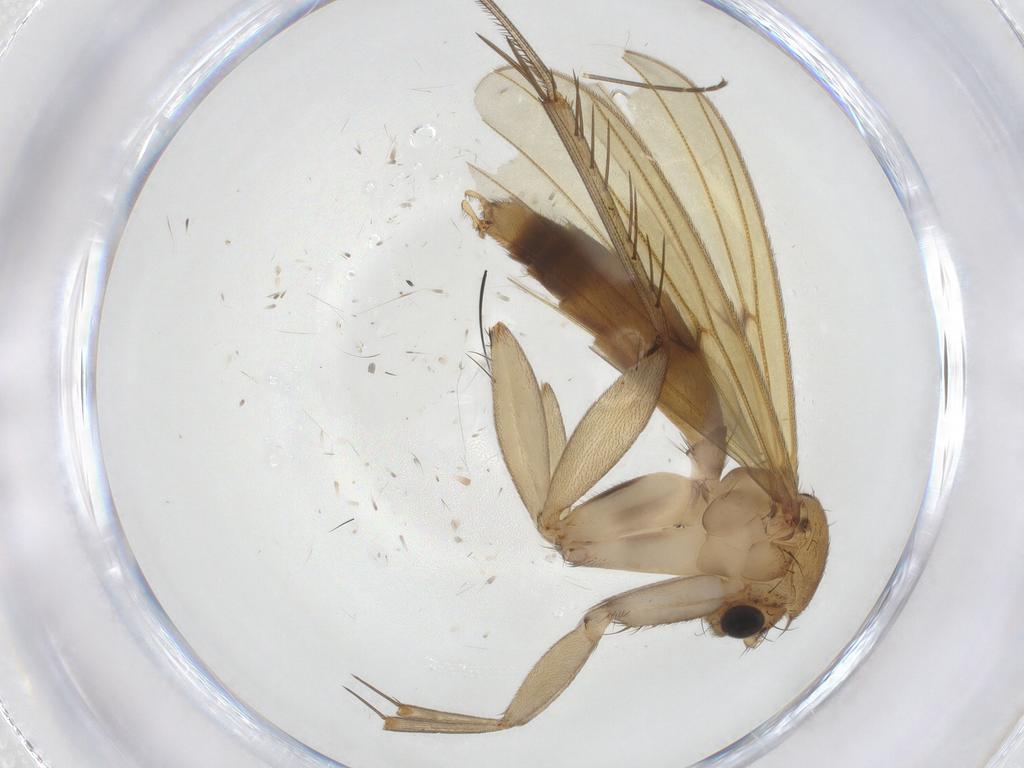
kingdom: Animalia
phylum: Arthropoda
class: Insecta
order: Diptera
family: Mycetophilidae
